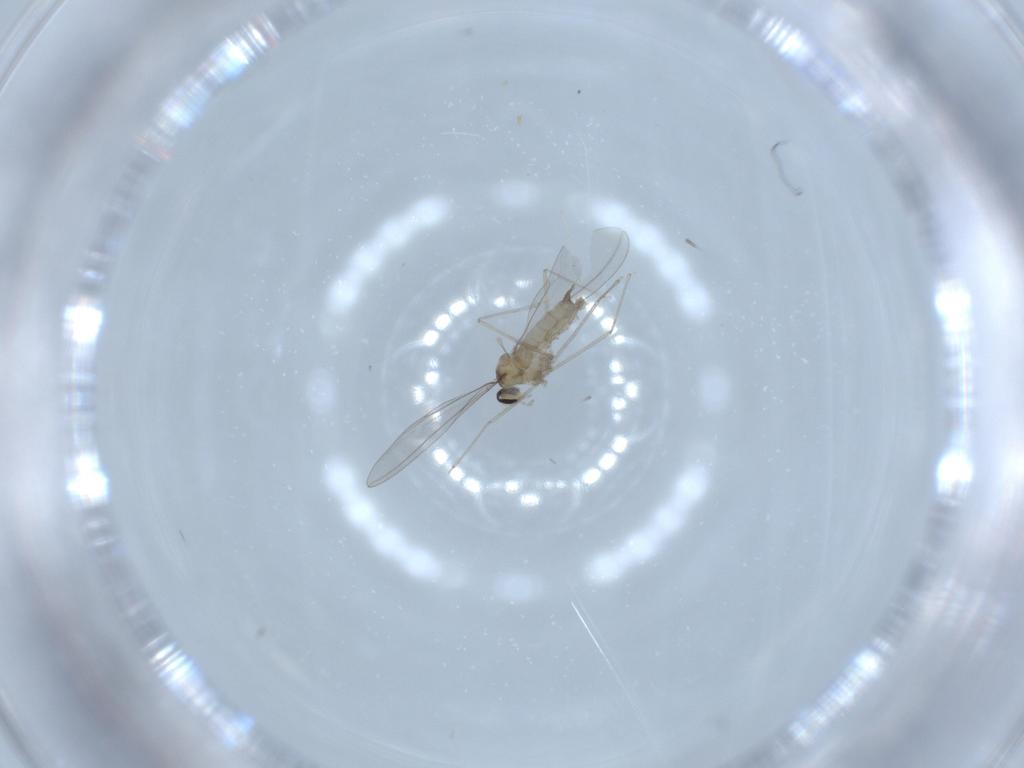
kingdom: Animalia
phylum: Arthropoda
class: Insecta
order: Diptera
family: Cecidomyiidae
